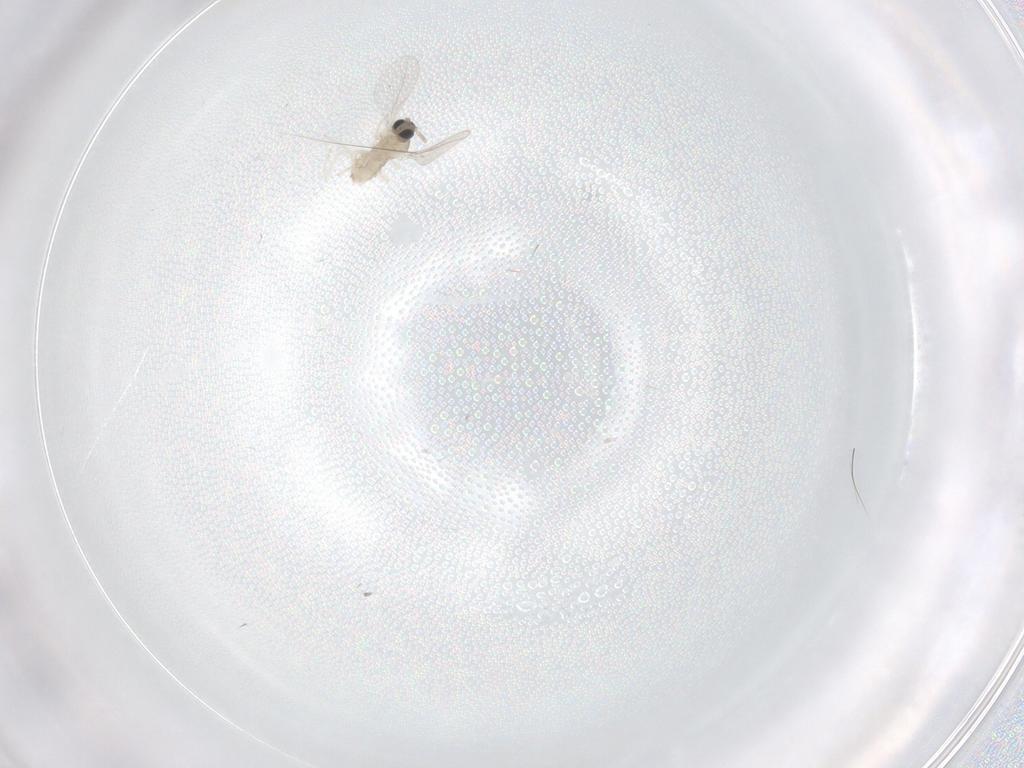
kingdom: Animalia
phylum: Arthropoda
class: Insecta
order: Diptera
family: Cecidomyiidae
